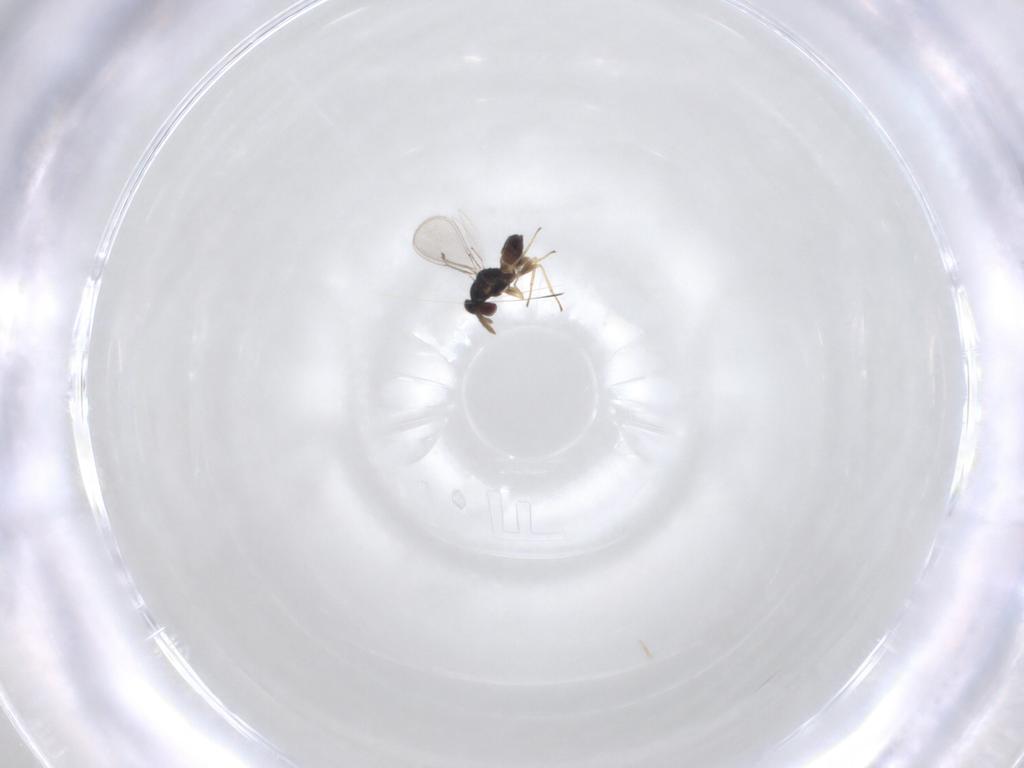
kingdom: Animalia
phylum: Arthropoda
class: Insecta
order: Hymenoptera
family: Eulophidae
